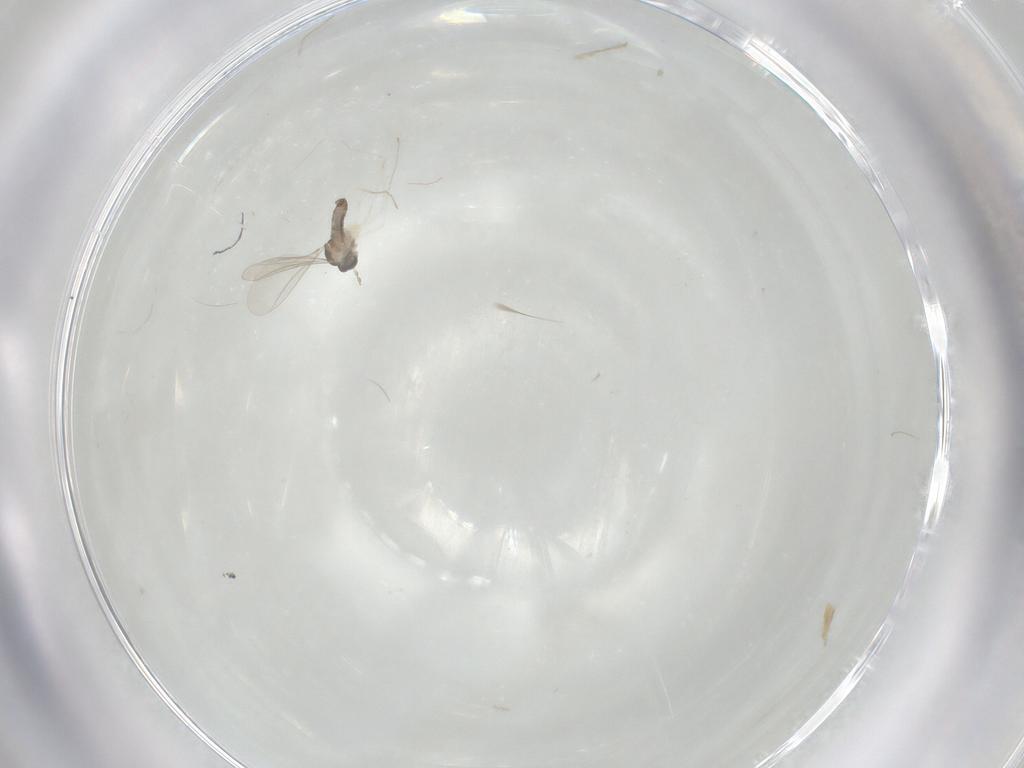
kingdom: Animalia
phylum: Arthropoda
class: Insecta
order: Diptera
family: Cecidomyiidae
